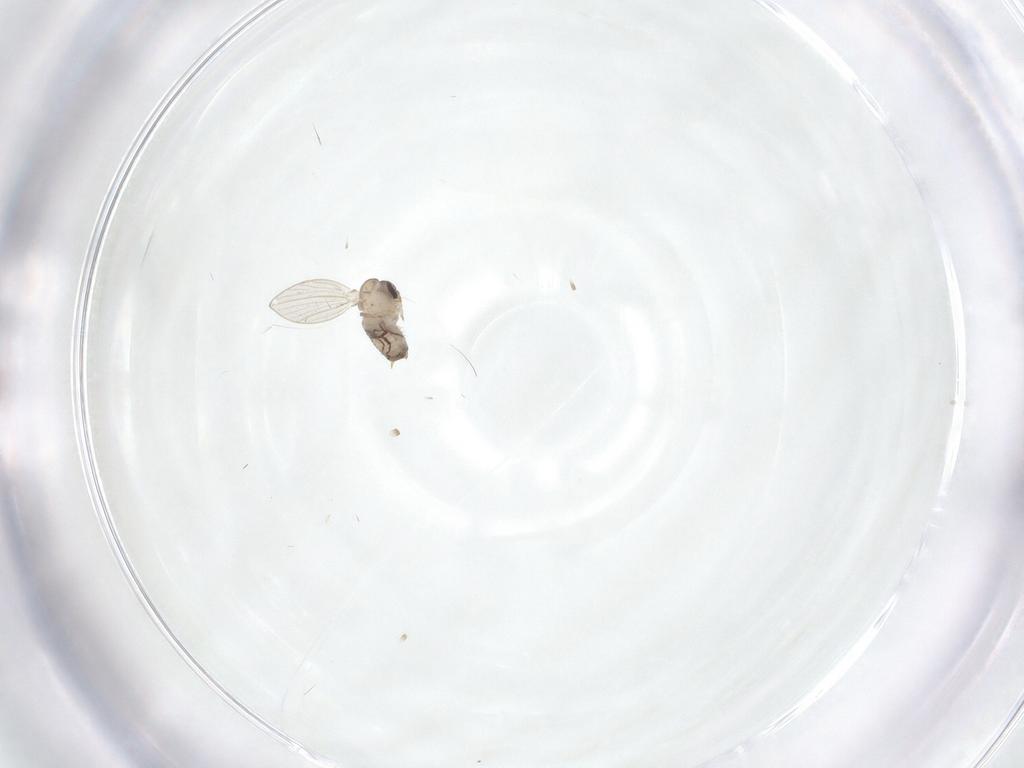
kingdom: Animalia
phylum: Arthropoda
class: Insecta
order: Diptera
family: Psychodidae
